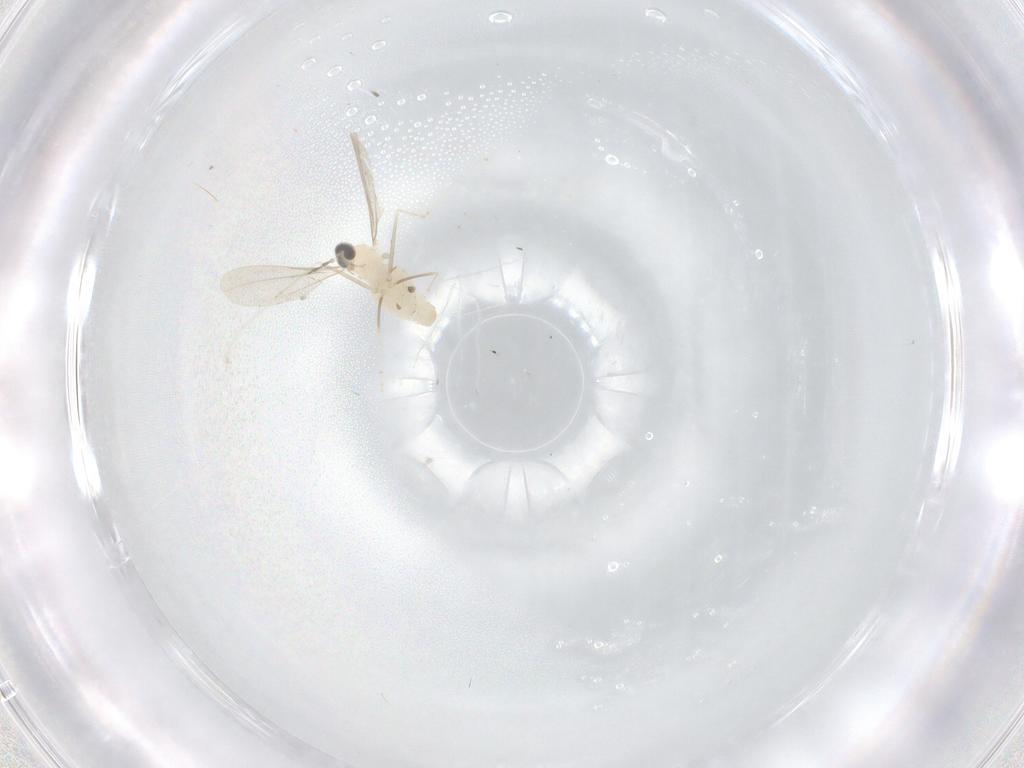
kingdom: Animalia
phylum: Arthropoda
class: Insecta
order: Diptera
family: Cecidomyiidae
